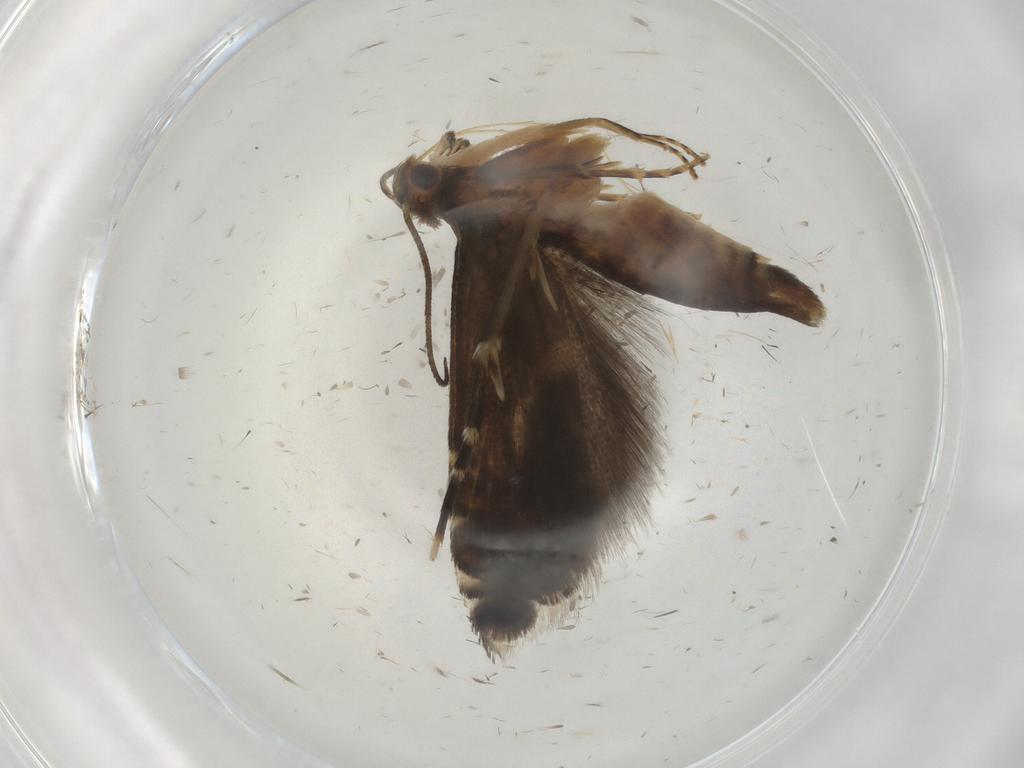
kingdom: Animalia
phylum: Arthropoda
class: Insecta
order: Lepidoptera
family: Glyphipterigidae
